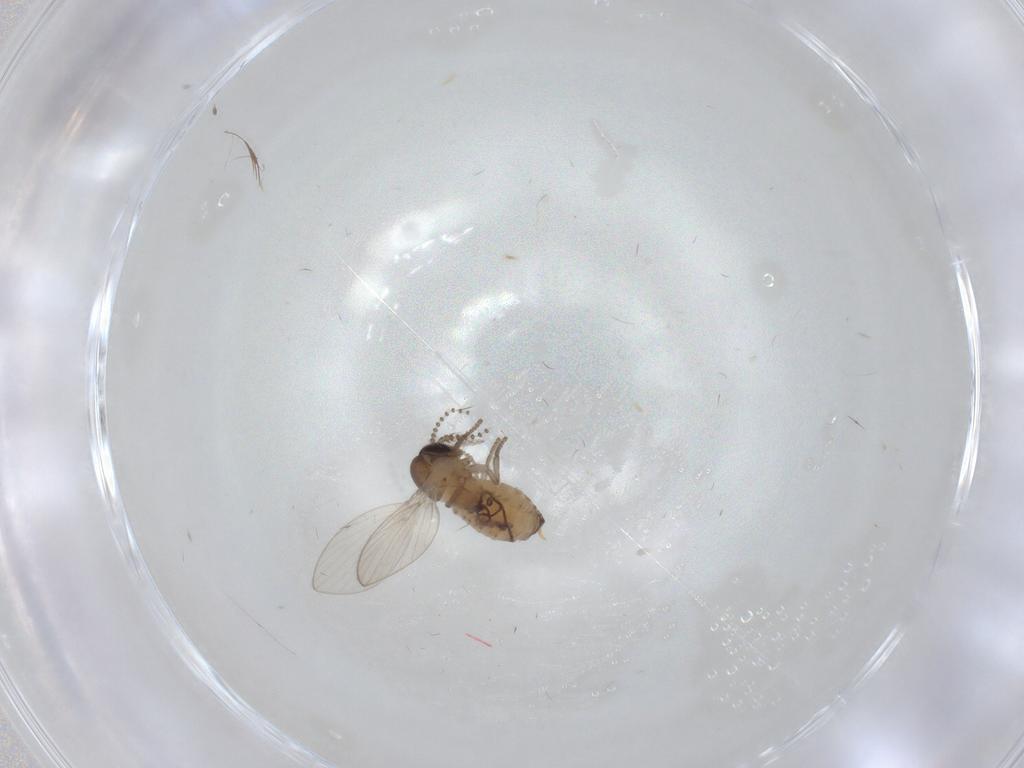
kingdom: Animalia
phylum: Arthropoda
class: Insecta
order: Diptera
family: Psychodidae
